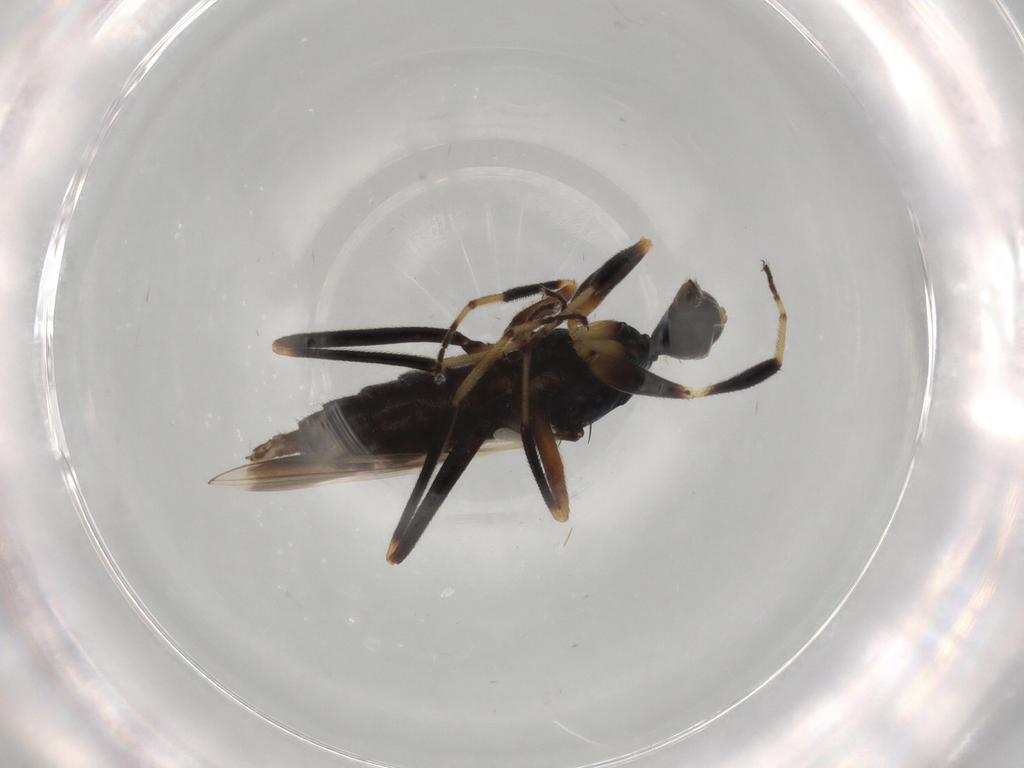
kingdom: Animalia
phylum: Arthropoda
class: Insecta
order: Diptera
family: Hybotidae
